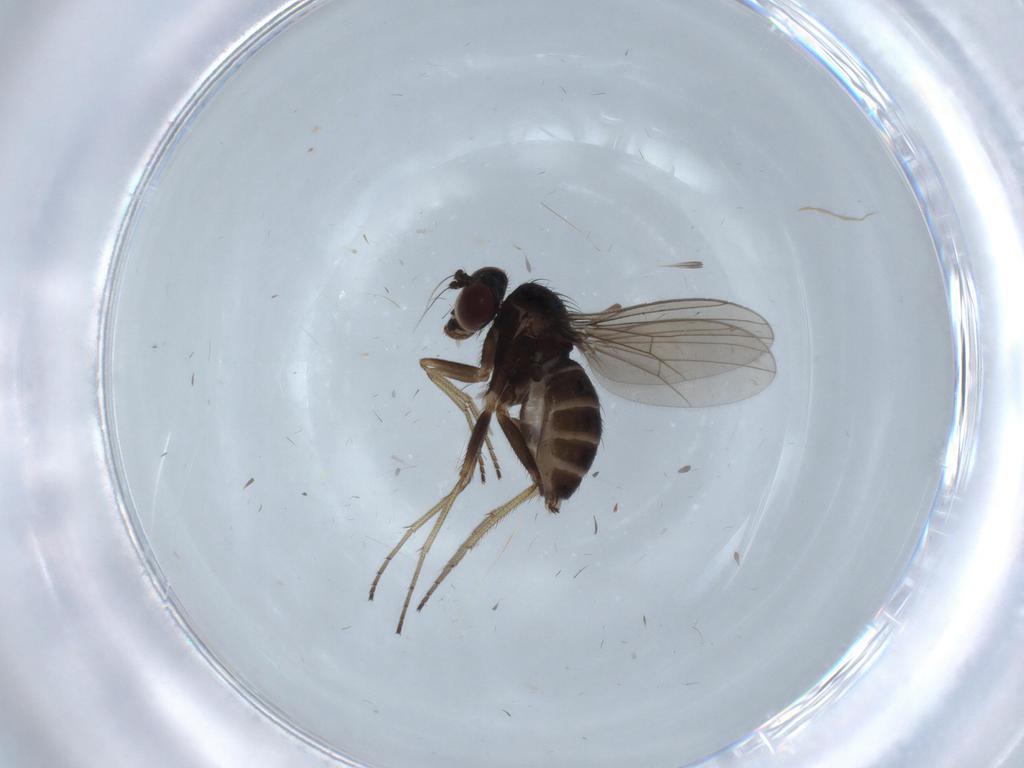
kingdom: Animalia
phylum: Arthropoda
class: Insecta
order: Diptera
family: Dolichopodidae
